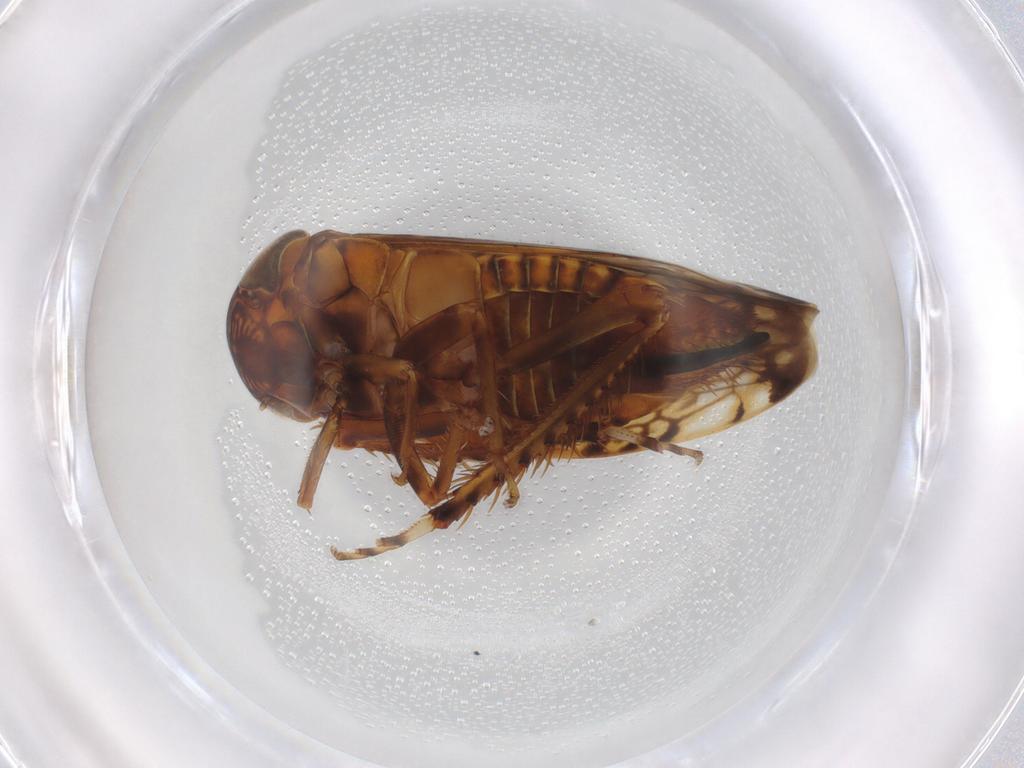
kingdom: Animalia
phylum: Arthropoda
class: Insecta
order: Hemiptera
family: Cicadellidae
